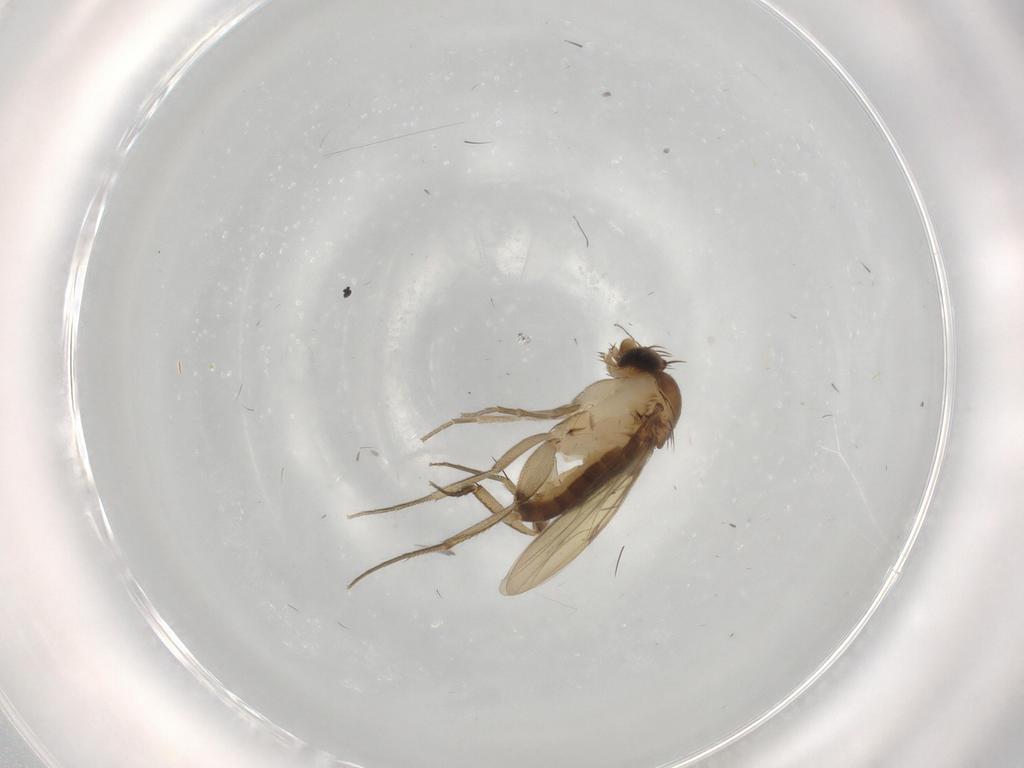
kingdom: Animalia
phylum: Arthropoda
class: Insecta
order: Diptera
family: Phoridae
